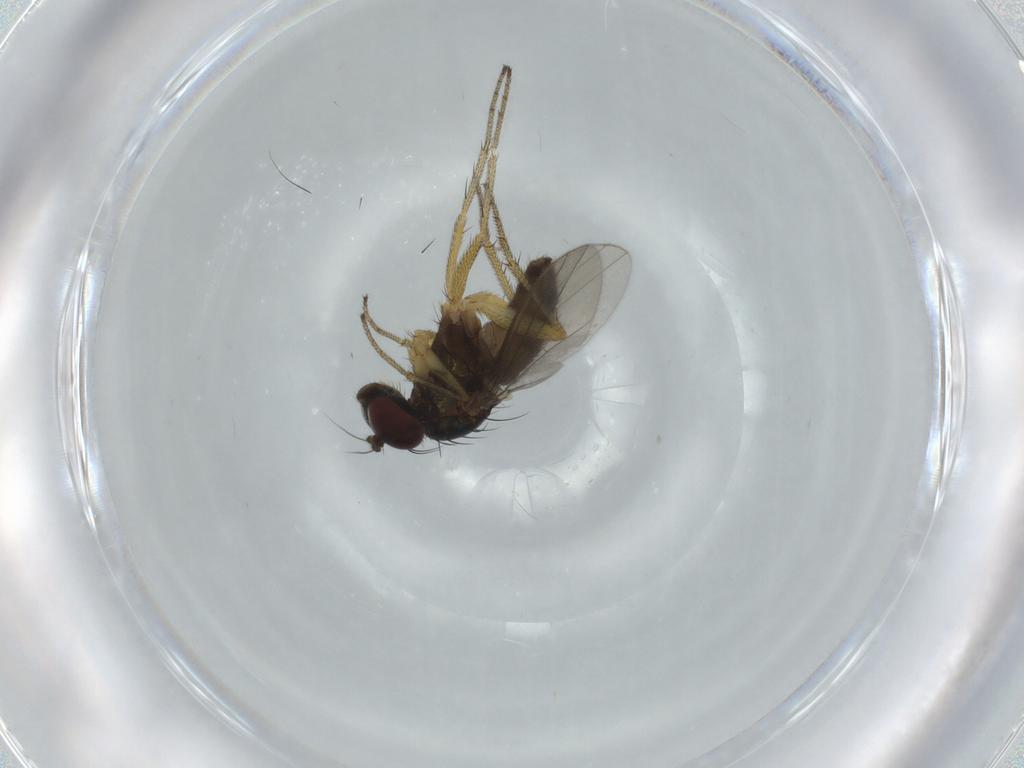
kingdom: Animalia
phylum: Arthropoda
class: Insecta
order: Diptera
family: Dolichopodidae
